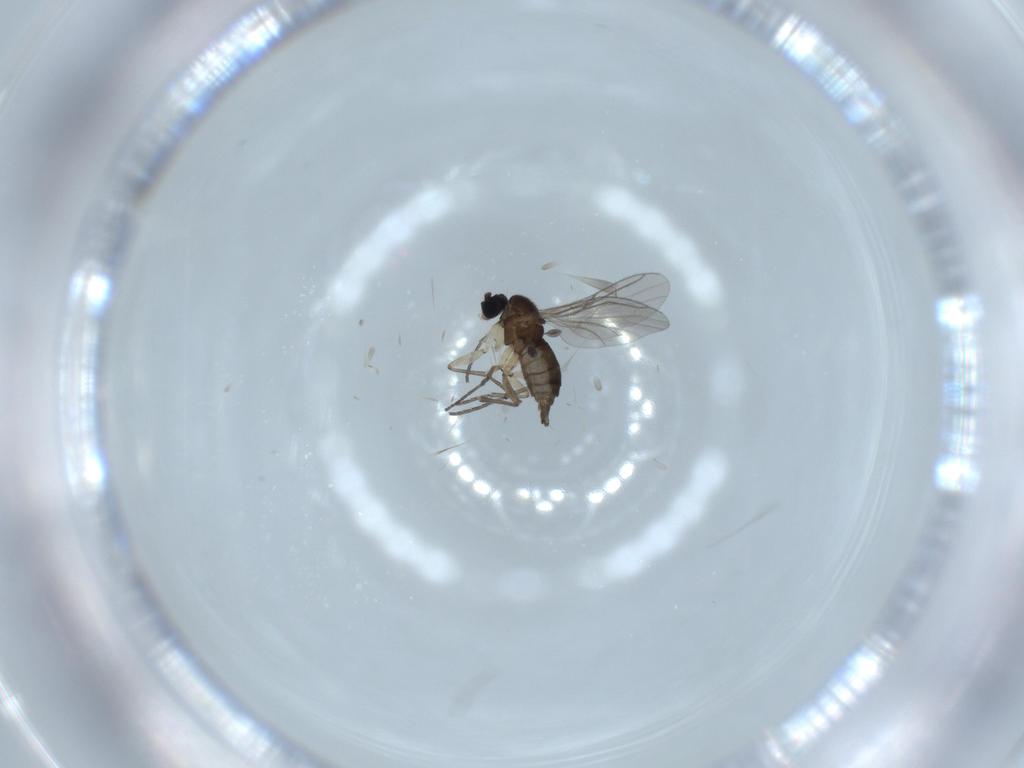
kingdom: Animalia
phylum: Arthropoda
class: Insecta
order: Diptera
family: Sciaridae
